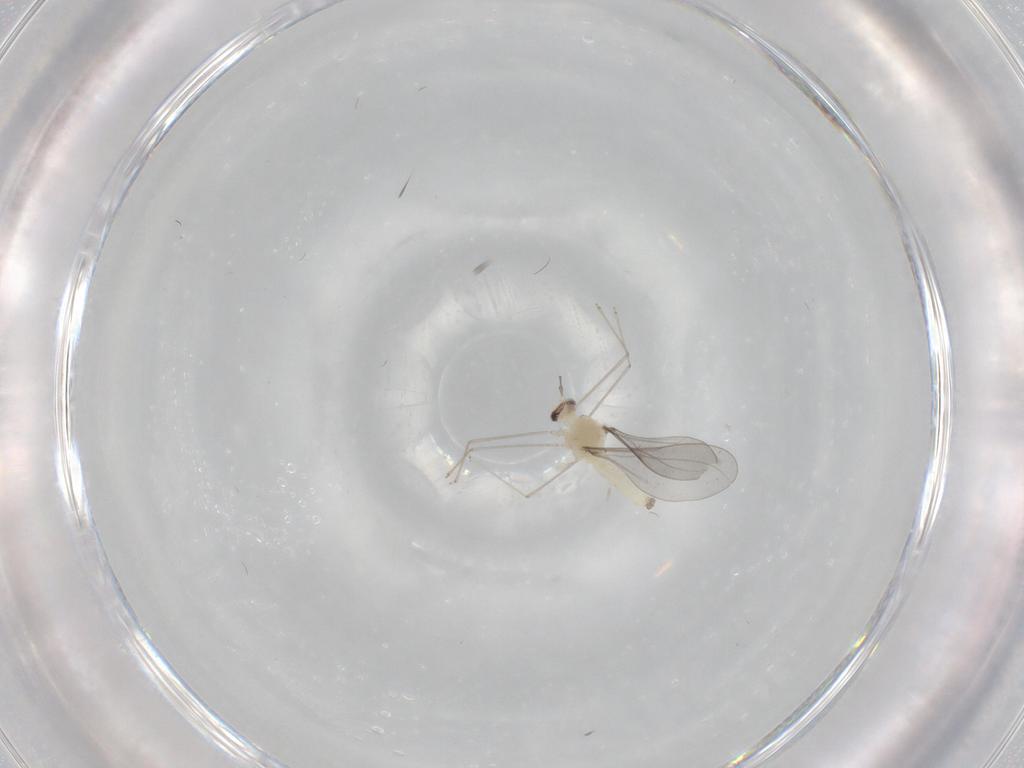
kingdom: Animalia
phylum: Arthropoda
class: Insecta
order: Diptera
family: Cecidomyiidae
